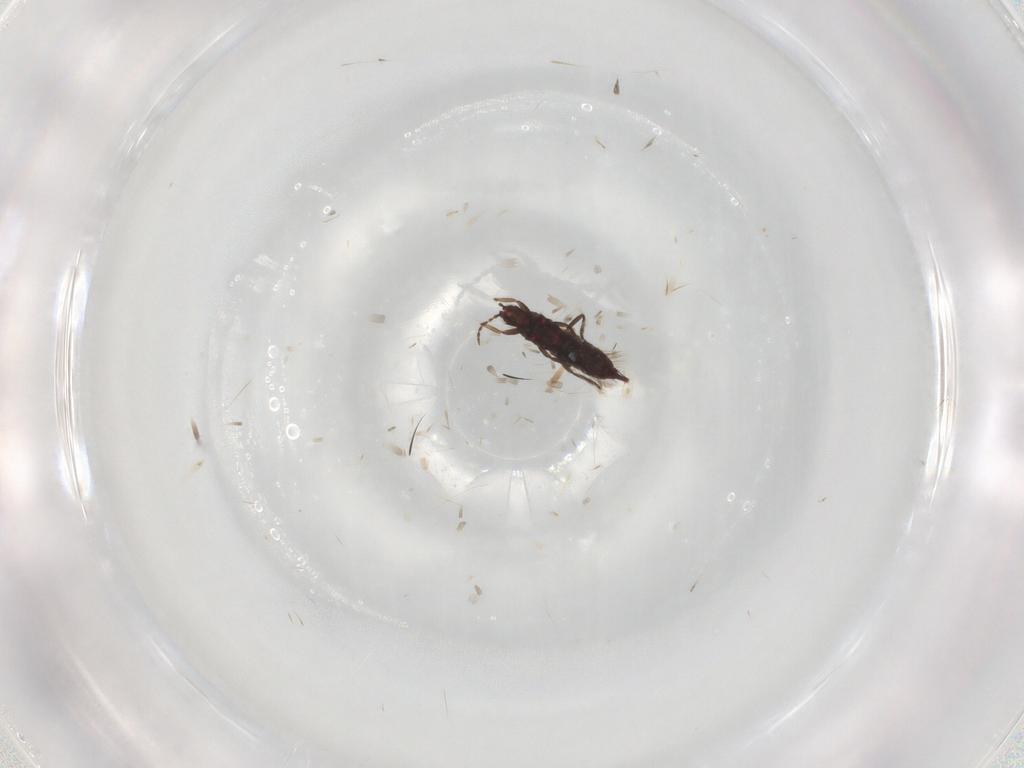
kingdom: Animalia
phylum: Arthropoda
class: Insecta
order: Thysanoptera
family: Phlaeothripidae
